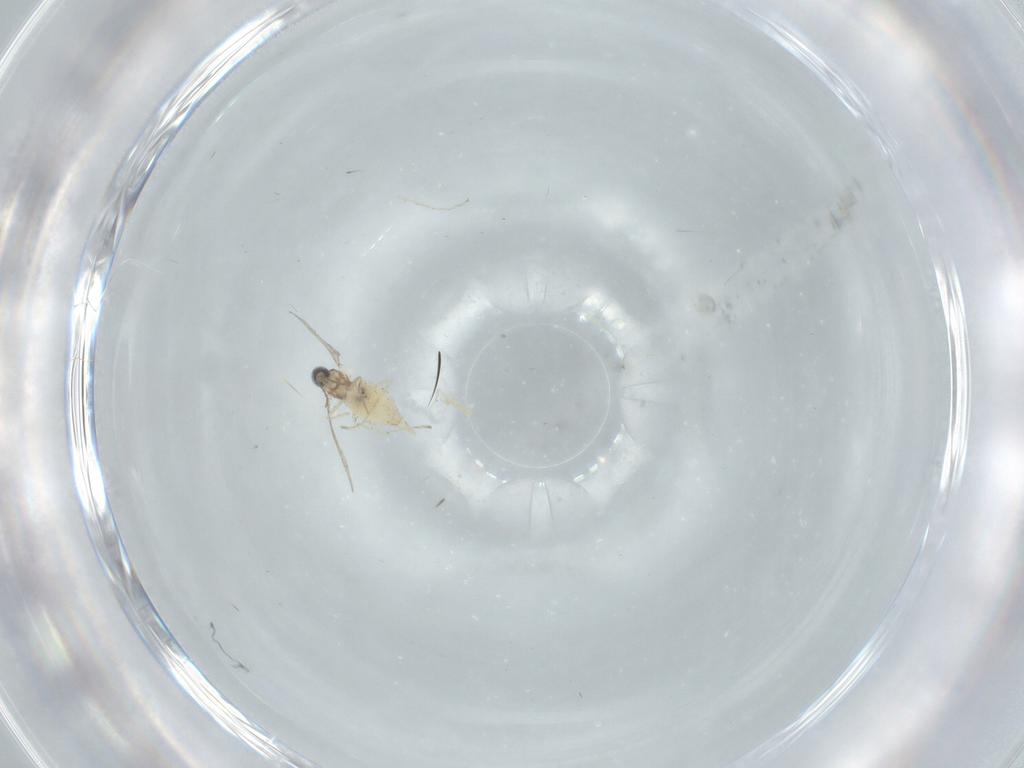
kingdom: Animalia
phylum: Arthropoda
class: Insecta
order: Diptera
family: Cecidomyiidae
